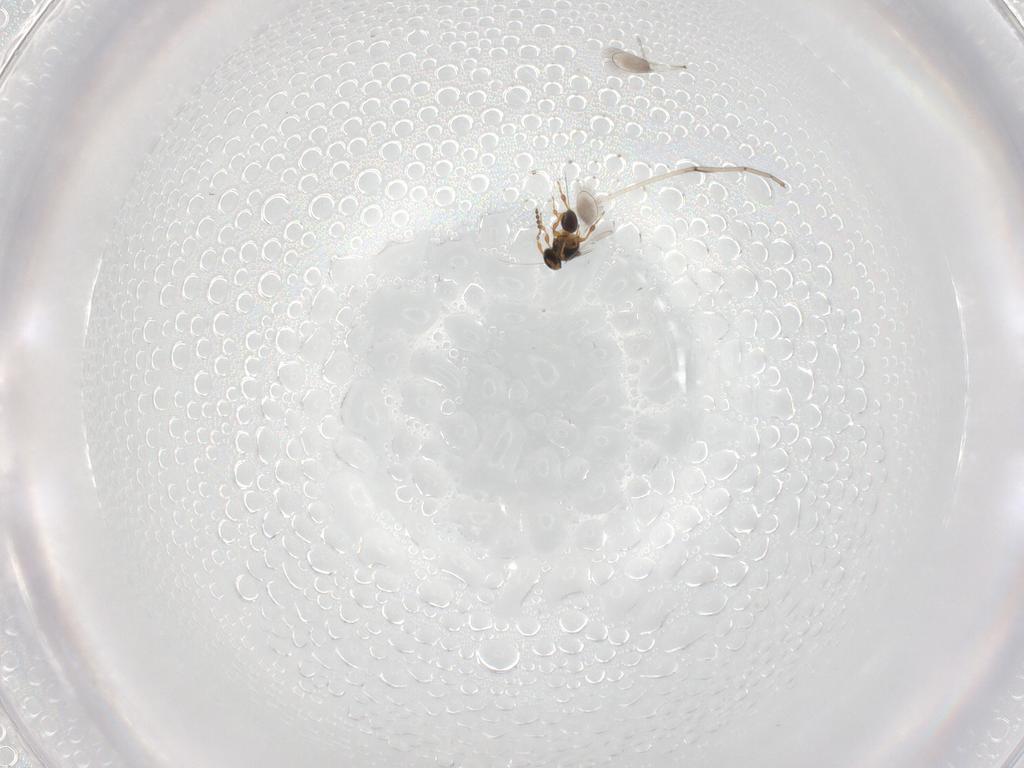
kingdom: Animalia
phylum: Arthropoda
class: Insecta
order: Hymenoptera
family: Platygastridae
